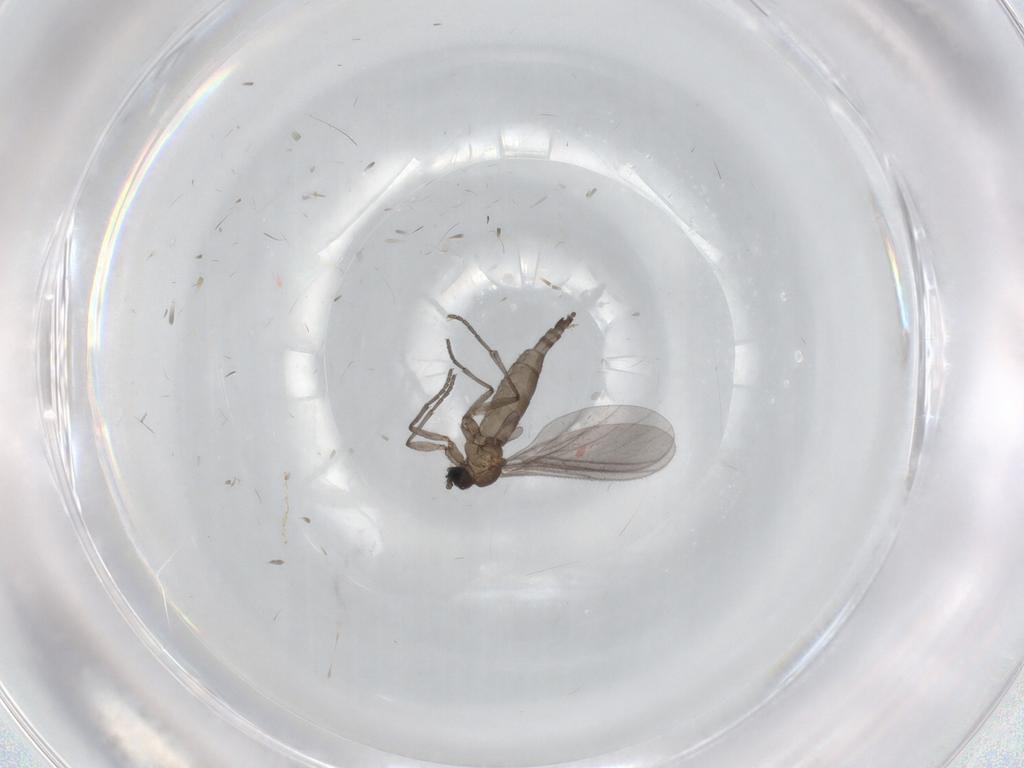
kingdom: Animalia
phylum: Arthropoda
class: Insecta
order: Diptera
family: Sciaridae
